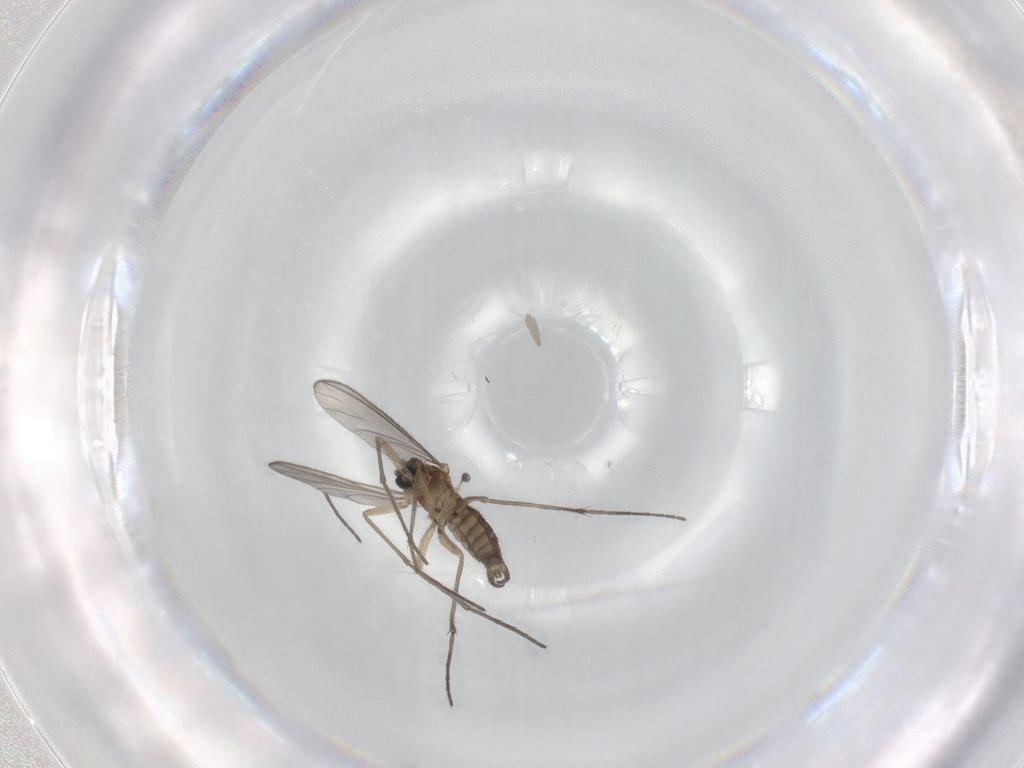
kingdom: Animalia
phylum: Arthropoda
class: Insecta
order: Diptera
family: Sciaridae
